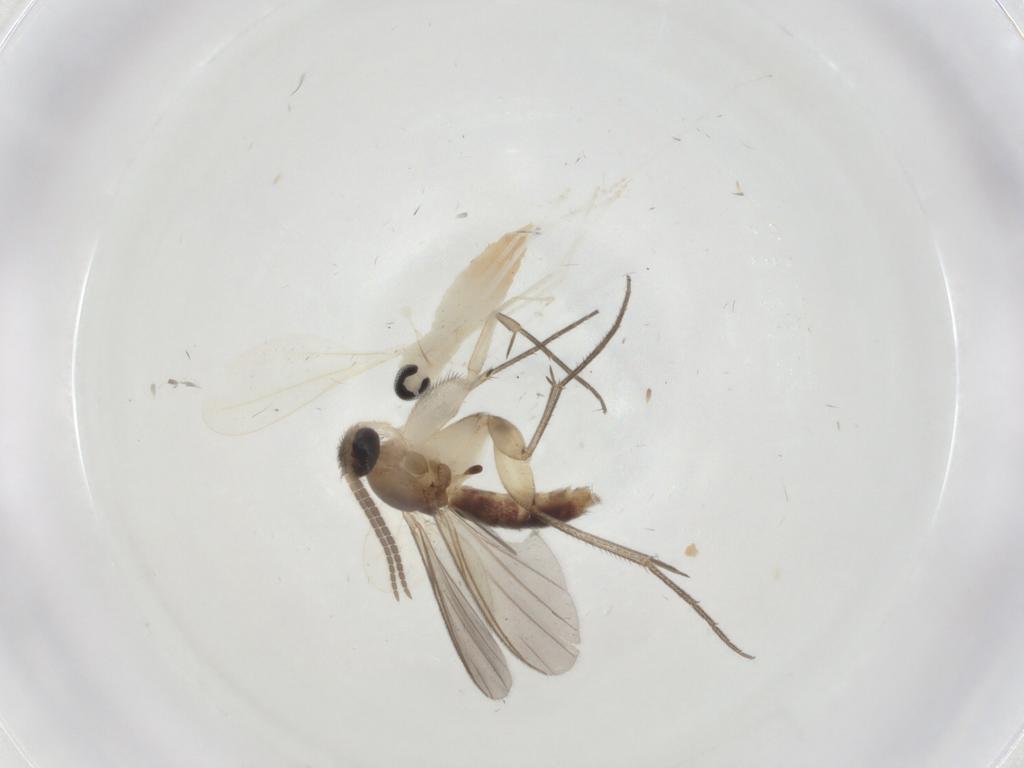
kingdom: Animalia
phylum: Arthropoda
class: Insecta
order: Diptera
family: Mycetophilidae
